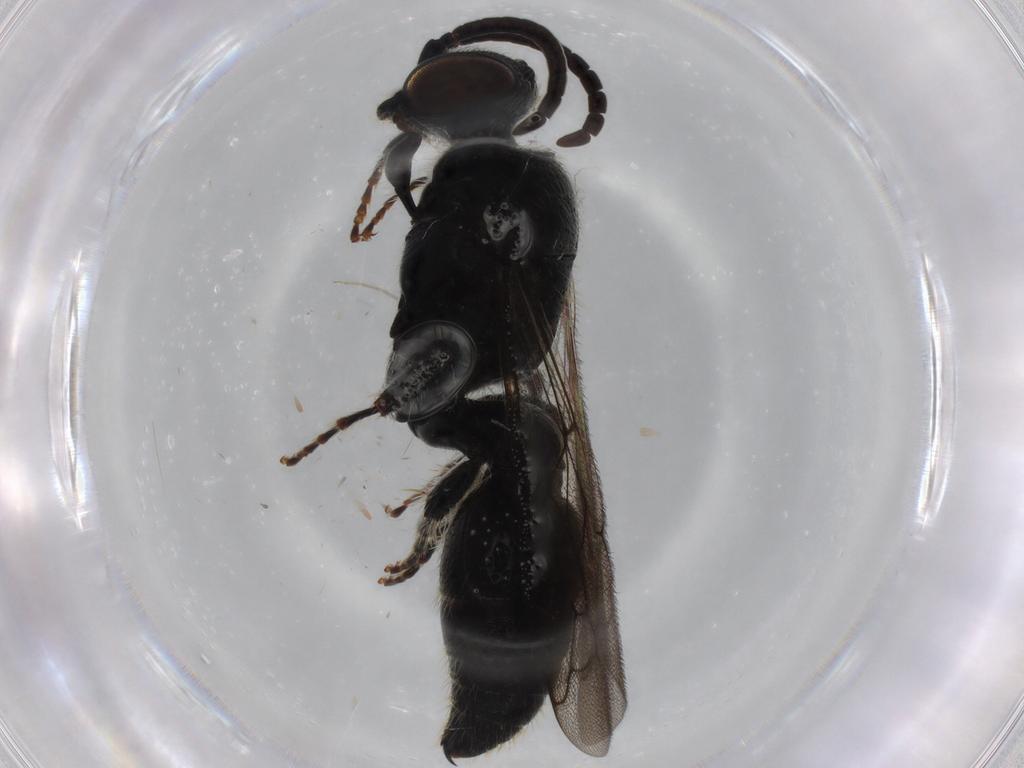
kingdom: Animalia
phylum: Arthropoda
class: Insecta
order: Hymenoptera
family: Tiphiidae
